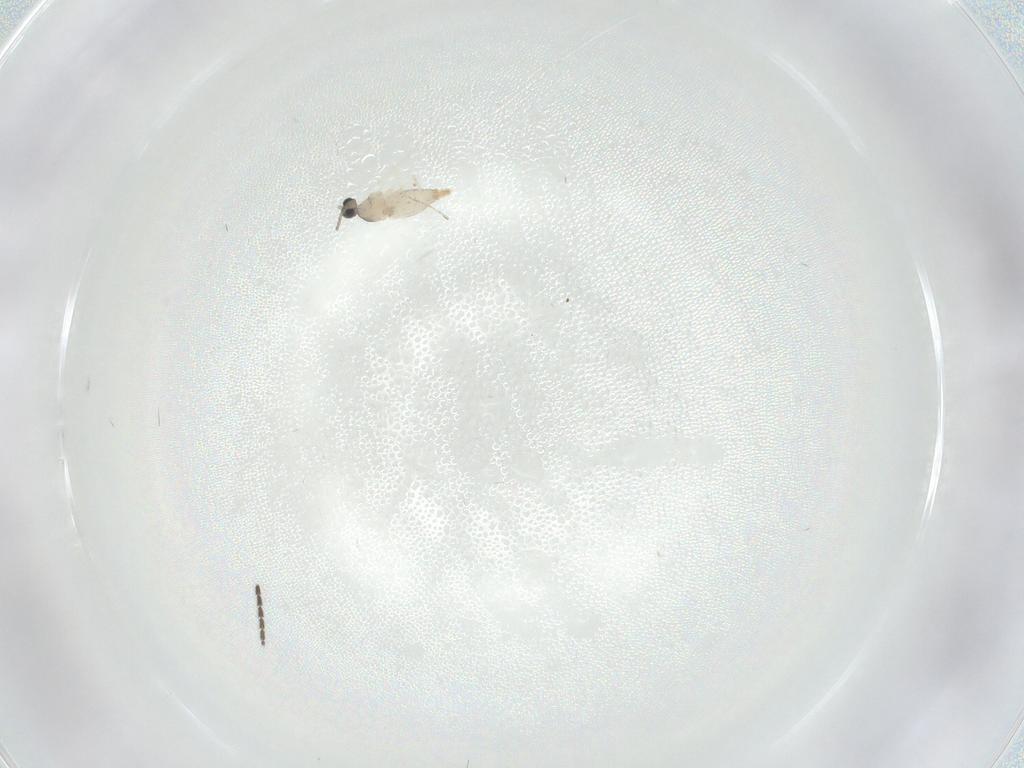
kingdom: Animalia
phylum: Arthropoda
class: Insecta
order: Diptera
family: Cecidomyiidae
